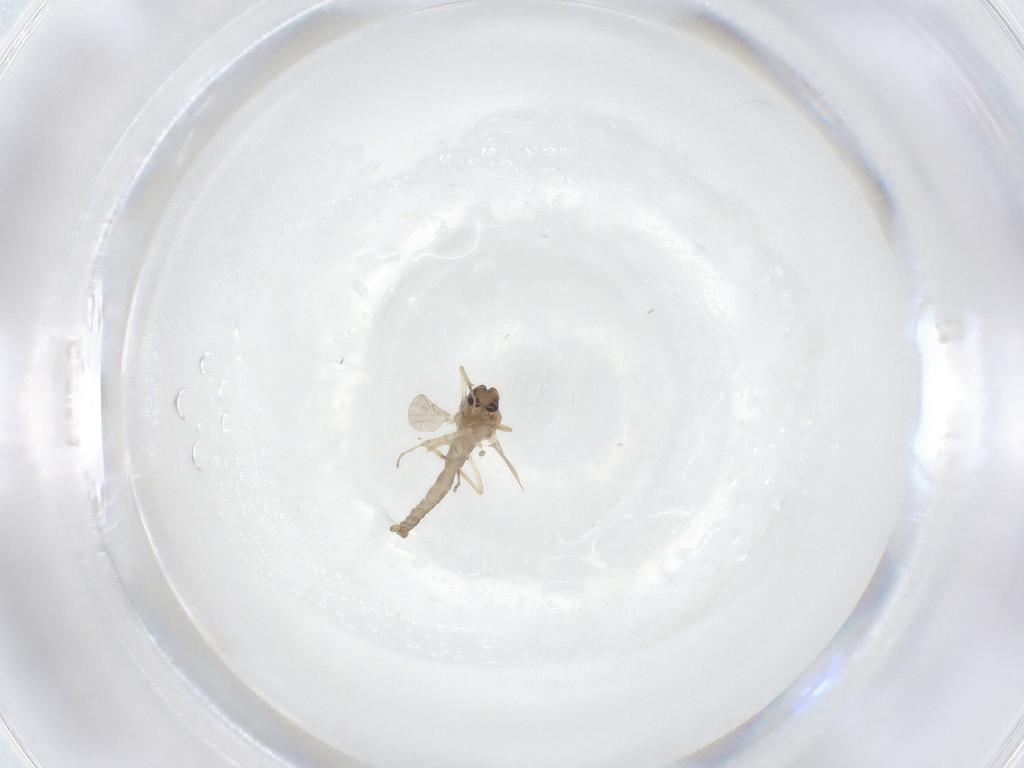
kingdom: Animalia
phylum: Arthropoda
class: Insecta
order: Diptera
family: Ceratopogonidae
